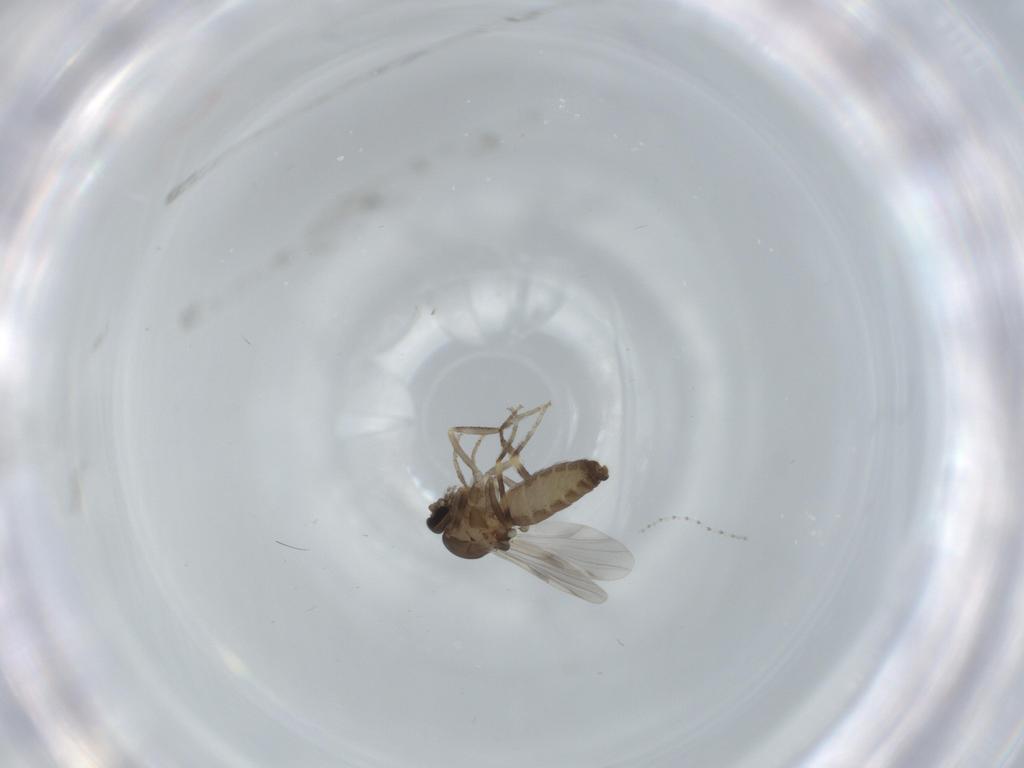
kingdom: Animalia
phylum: Arthropoda
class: Insecta
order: Diptera
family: Ceratopogonidae
